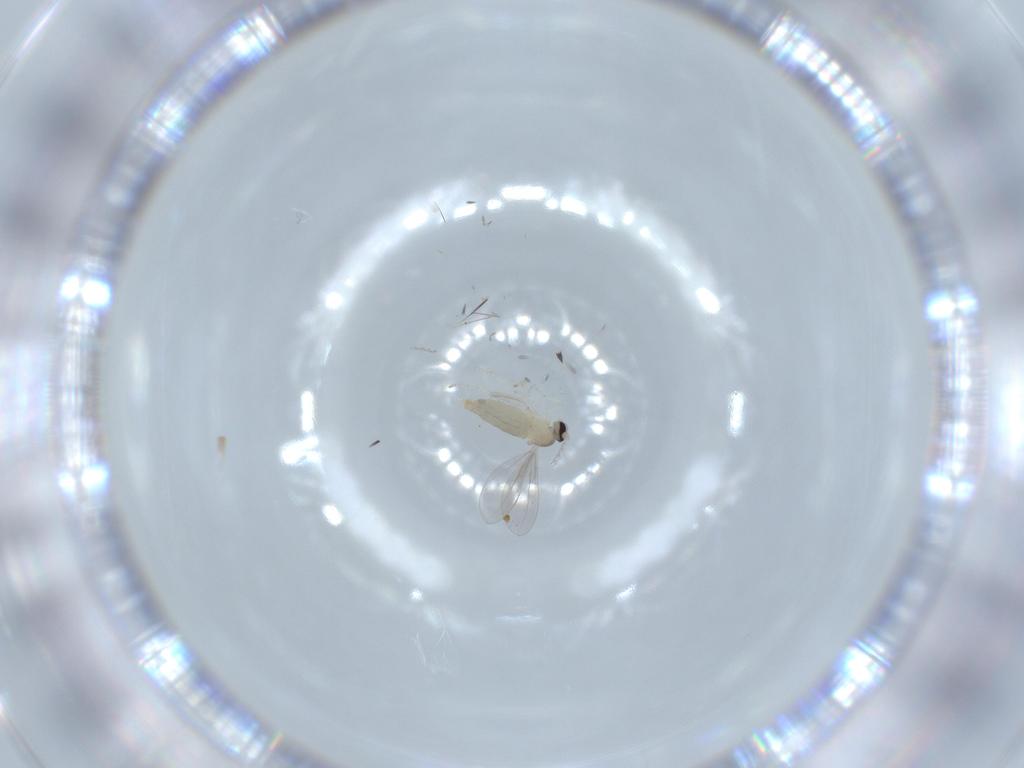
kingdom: Animalia
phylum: Arthropoda
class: Insecta
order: Diptera
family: Cecidomyiidae
